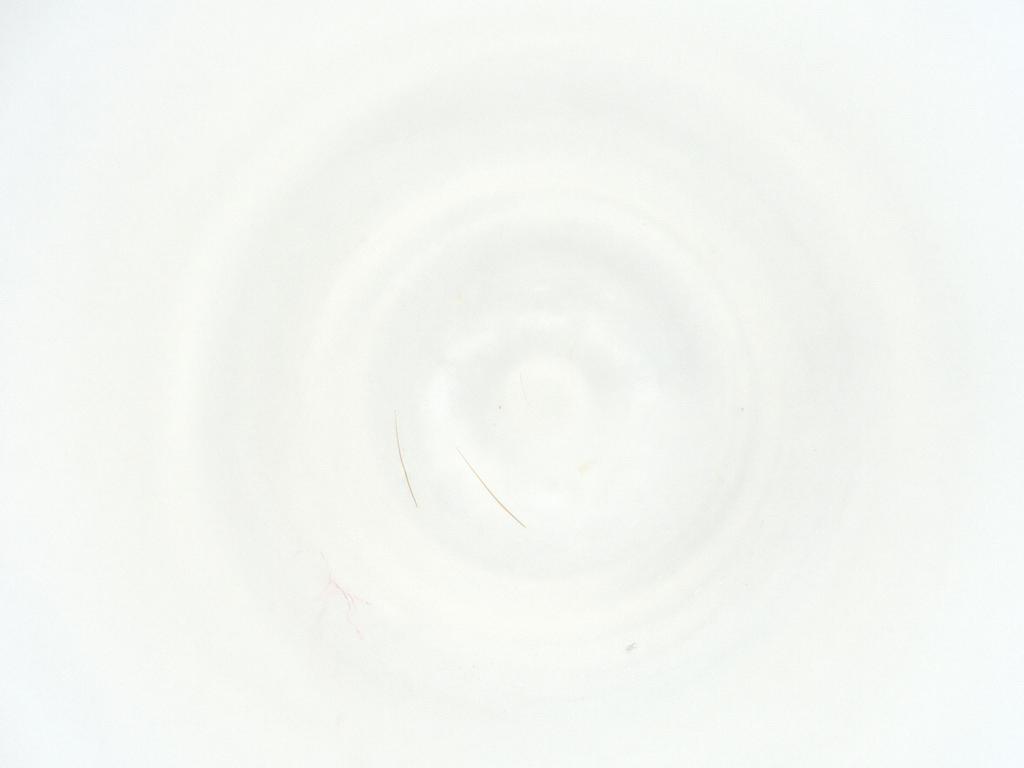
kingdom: Animalia
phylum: Arthropoda
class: Insecta
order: Diptera
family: Sciaridae
